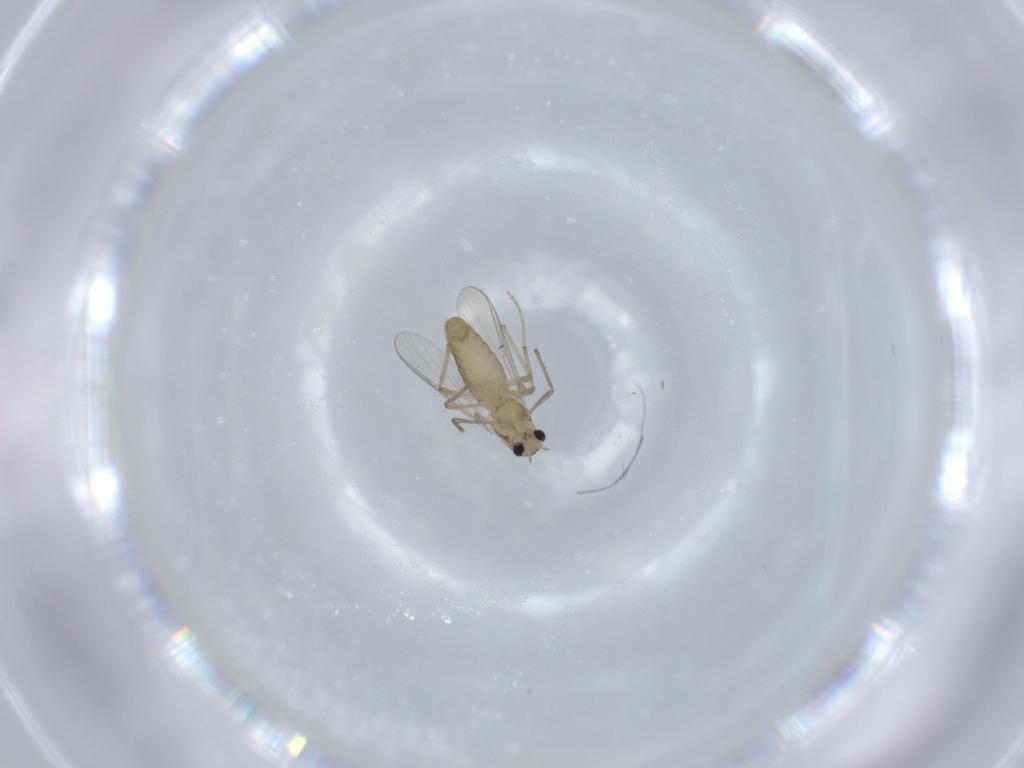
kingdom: Animalia
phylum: Arthropoda
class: Insecta
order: Diptera
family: Chironomidae
